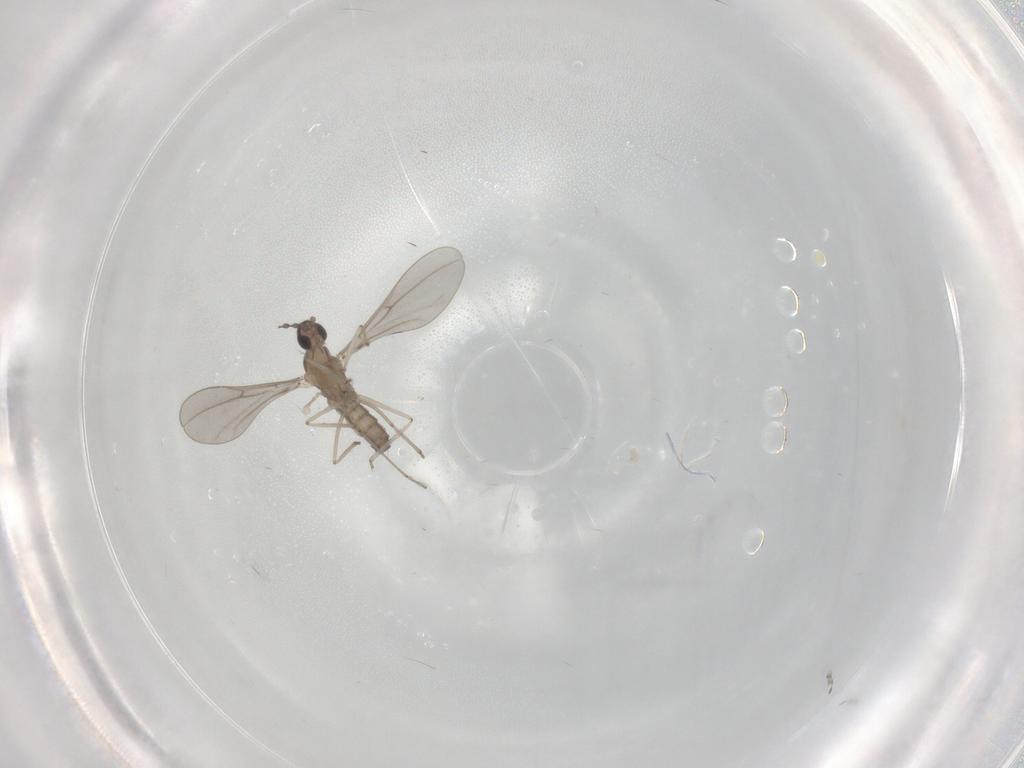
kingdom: Animalia
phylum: Arthropoda
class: Insecta
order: Diptera
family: Cecidomyiidae
